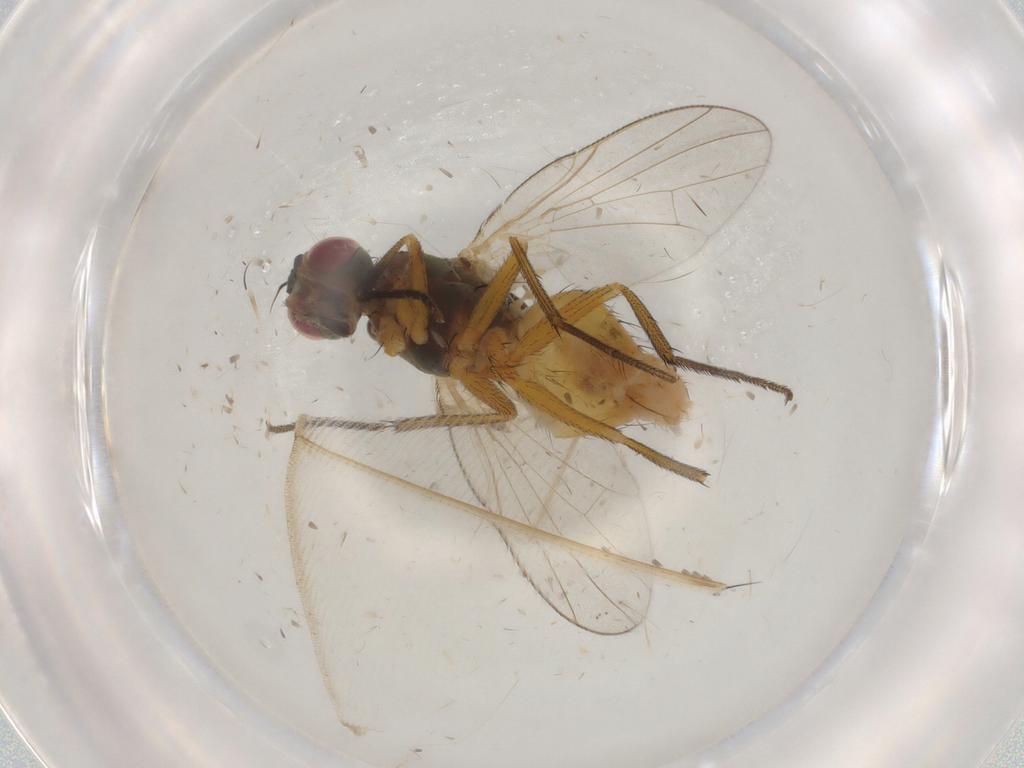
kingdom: Animalia
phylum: Arthropoda
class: Insecta
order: Diptera
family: Muscidae
